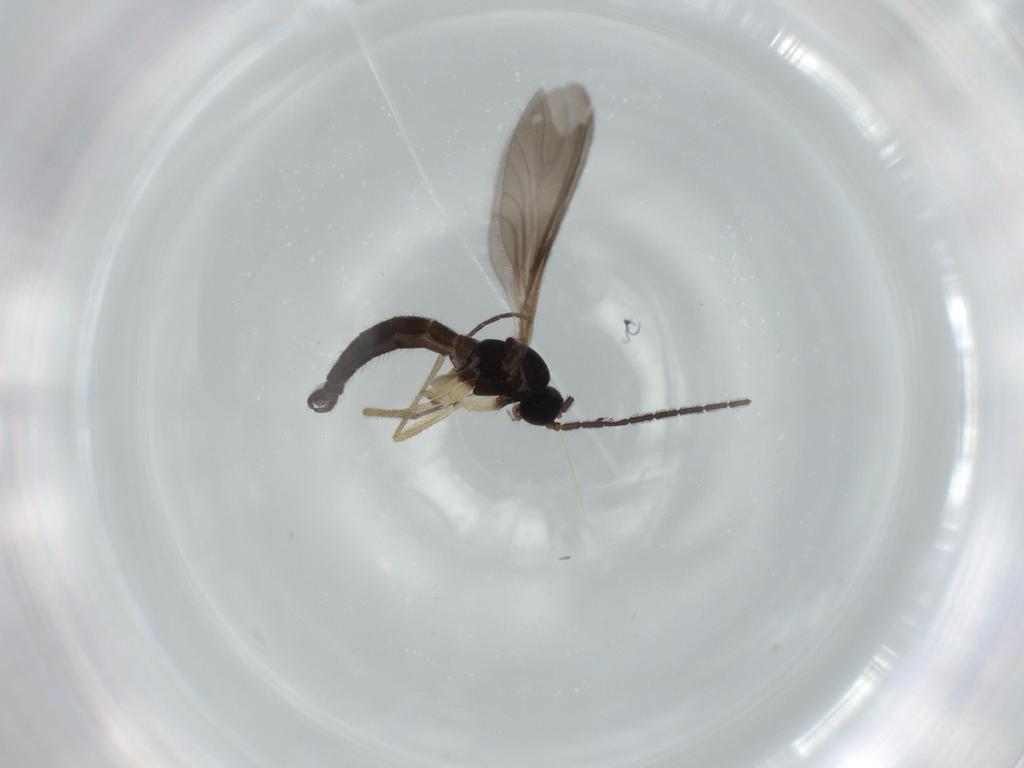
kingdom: Animalia
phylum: Arthropoda
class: Insecta
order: Diptera
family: Sciaridae
